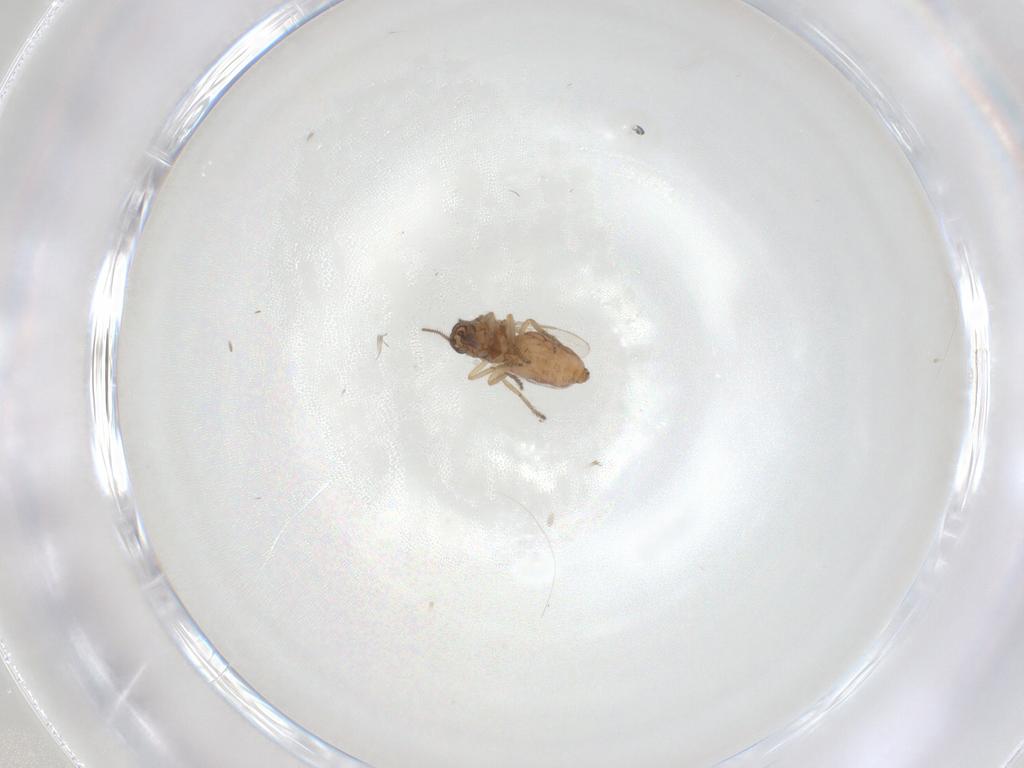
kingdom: Animalia
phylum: Arthropoda
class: Insecta
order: Diptera
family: Ceratopogonidae
